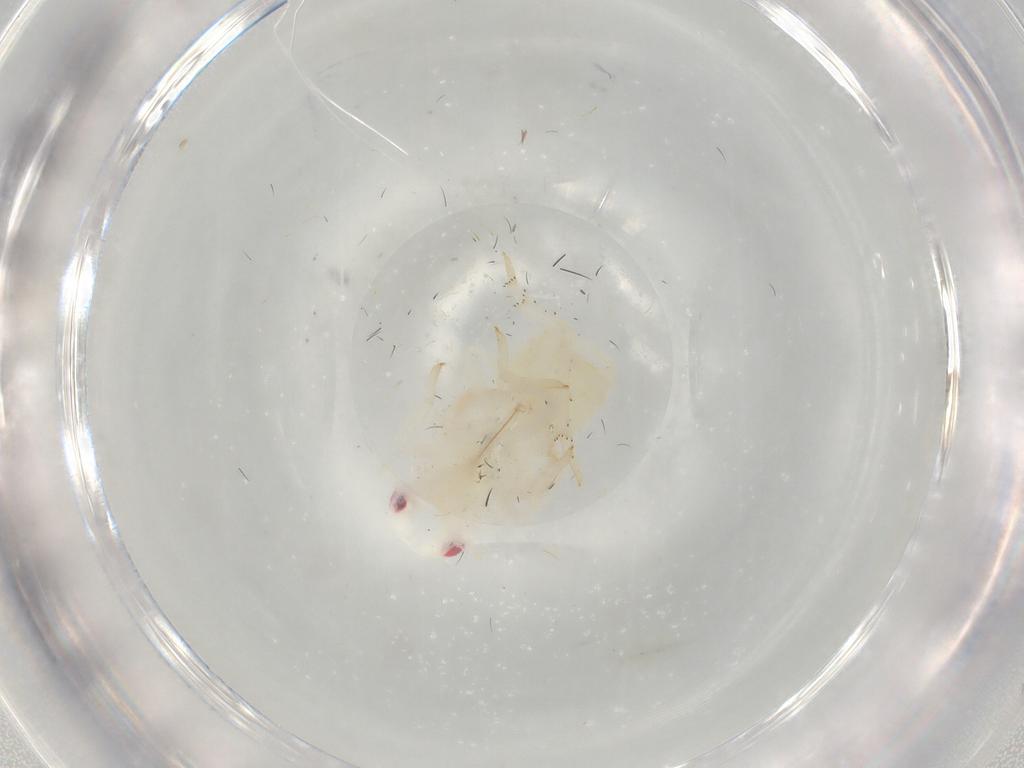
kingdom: Animalia
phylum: Arthropoda
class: Insecta
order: Hemiptera
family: Flatidae
